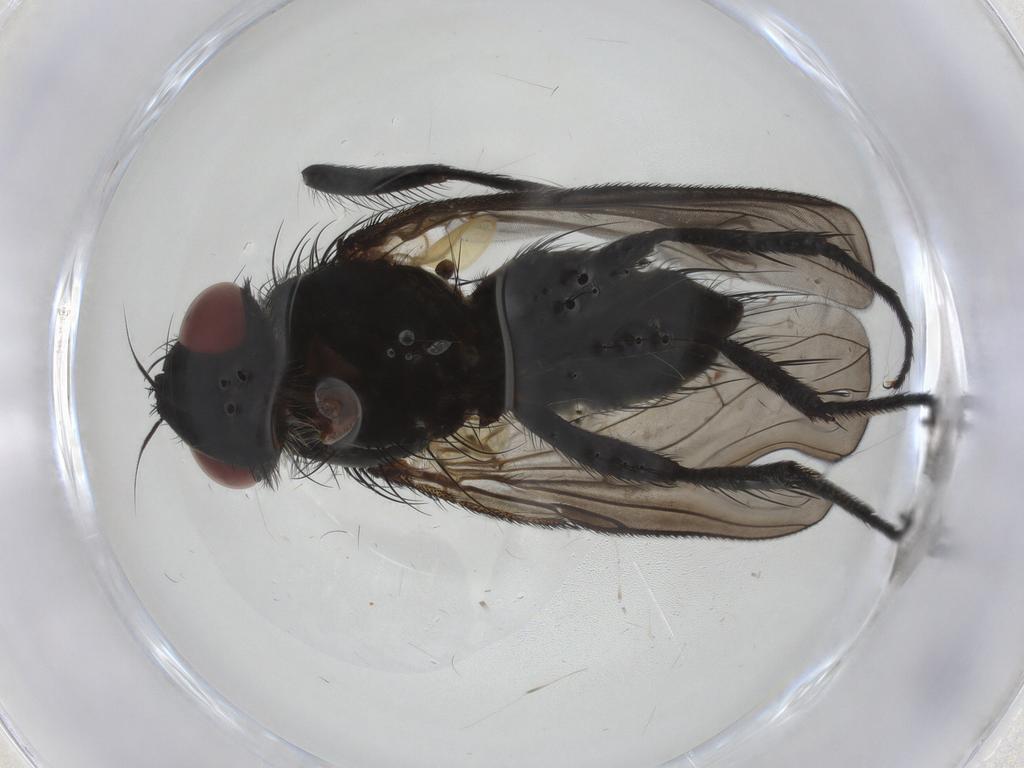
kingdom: Animalia
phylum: Arthropoda
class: Insecta
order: Diptera
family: Tachinidae
